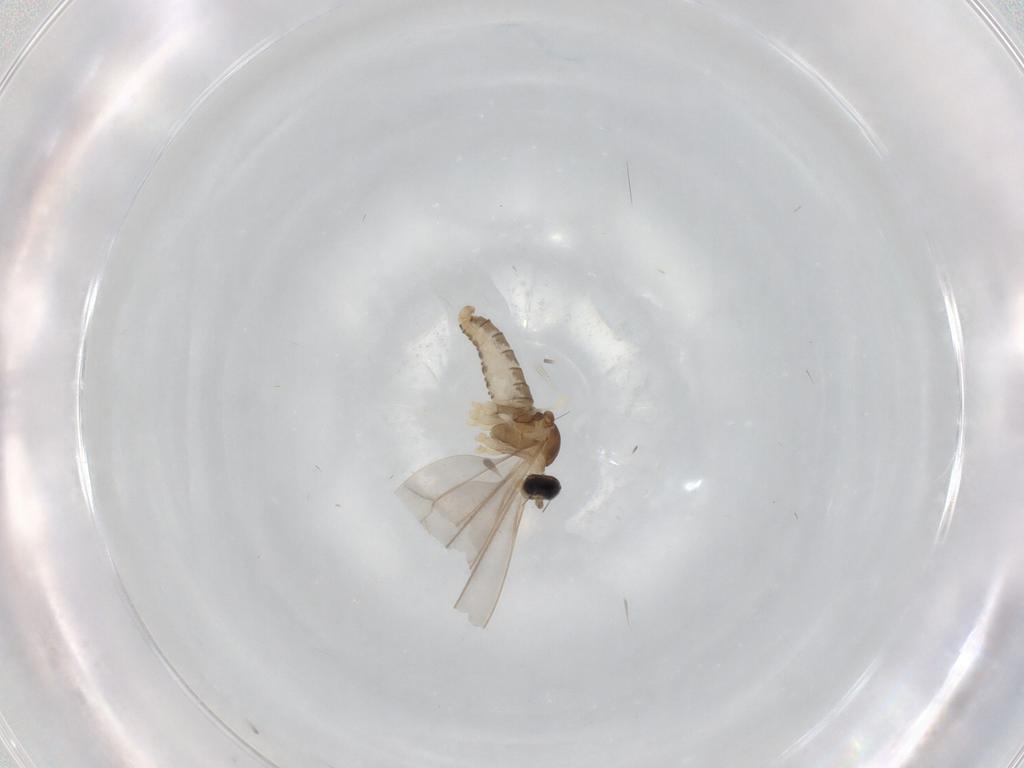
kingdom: Animalia
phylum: Arthropoda
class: Insecta
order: Diptera
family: Cecidomyiidae
